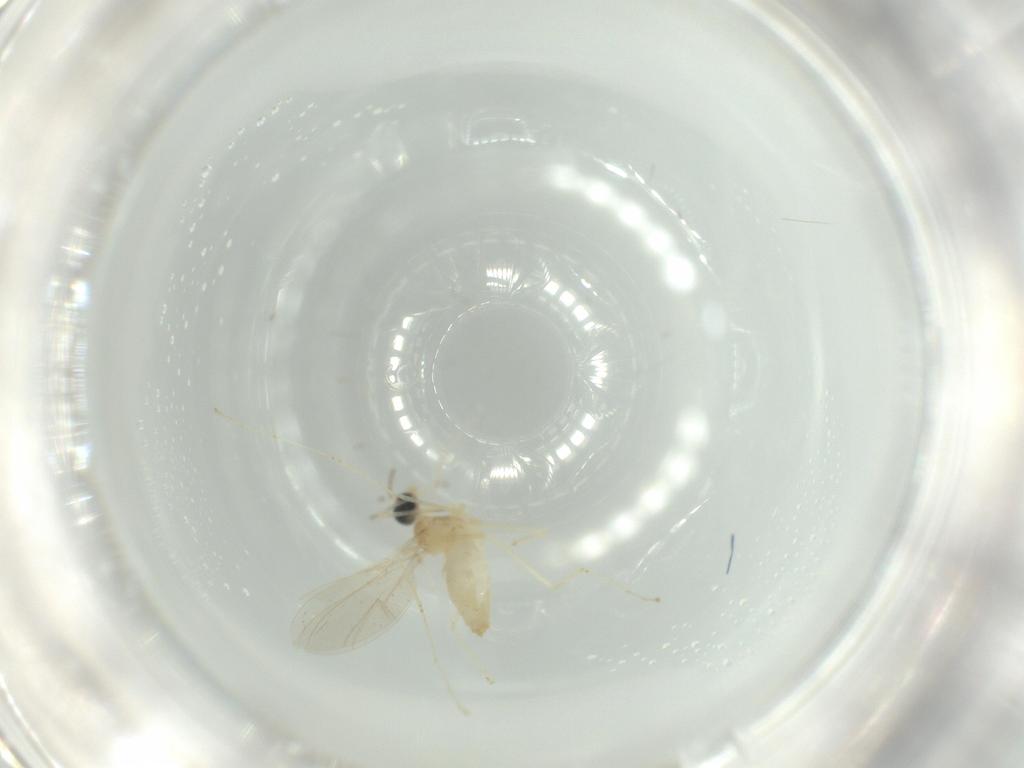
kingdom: Animalia
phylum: Arthropoda
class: Insecta
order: Diptera
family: Cecidomyiidae
